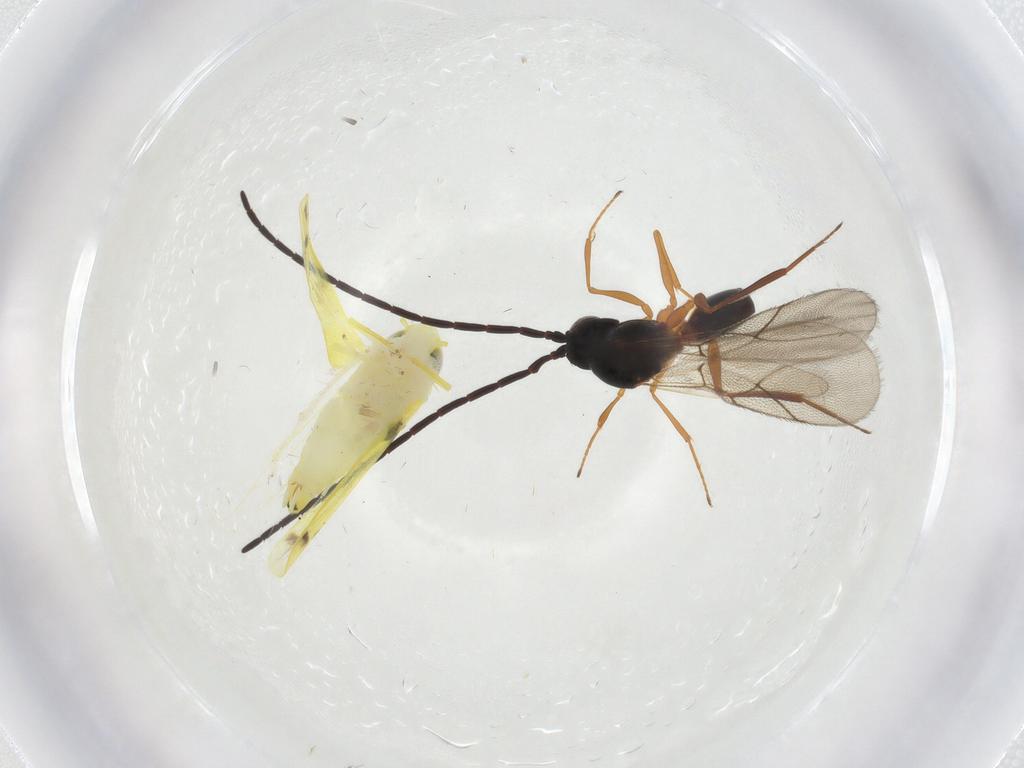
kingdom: Animalia
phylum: Arthropoda
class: Insecta
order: Hemiptera
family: Cicadellidae
